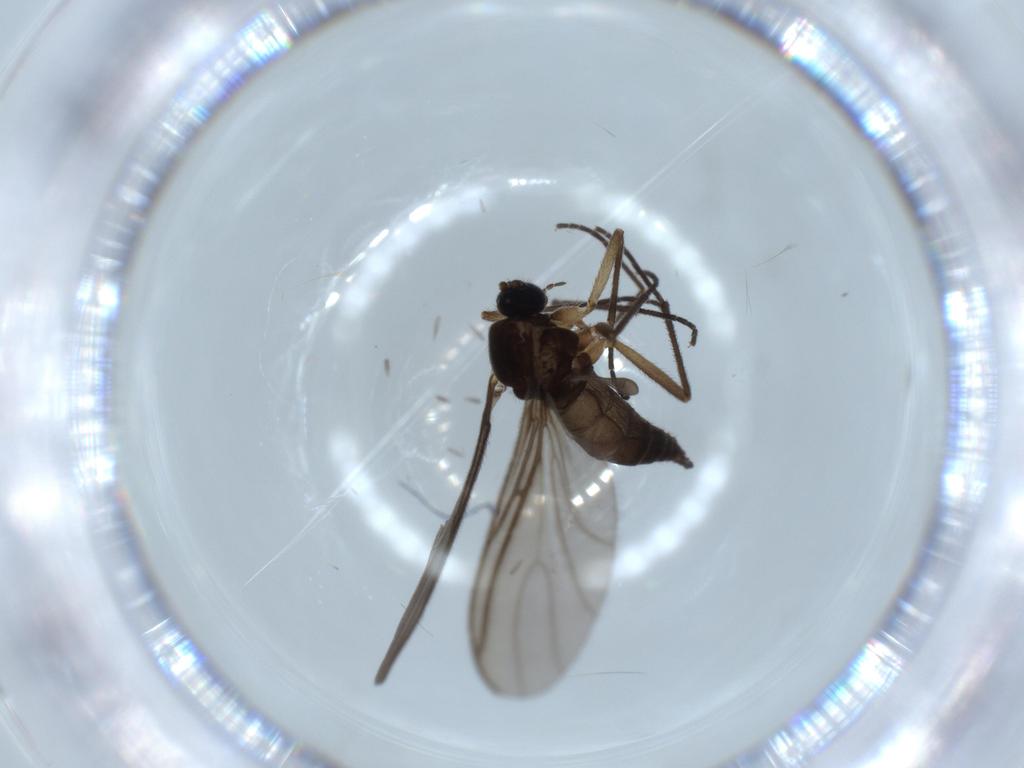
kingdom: Animalia
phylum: Arthropoda
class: Insecta
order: Diptera
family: Sciaridae
